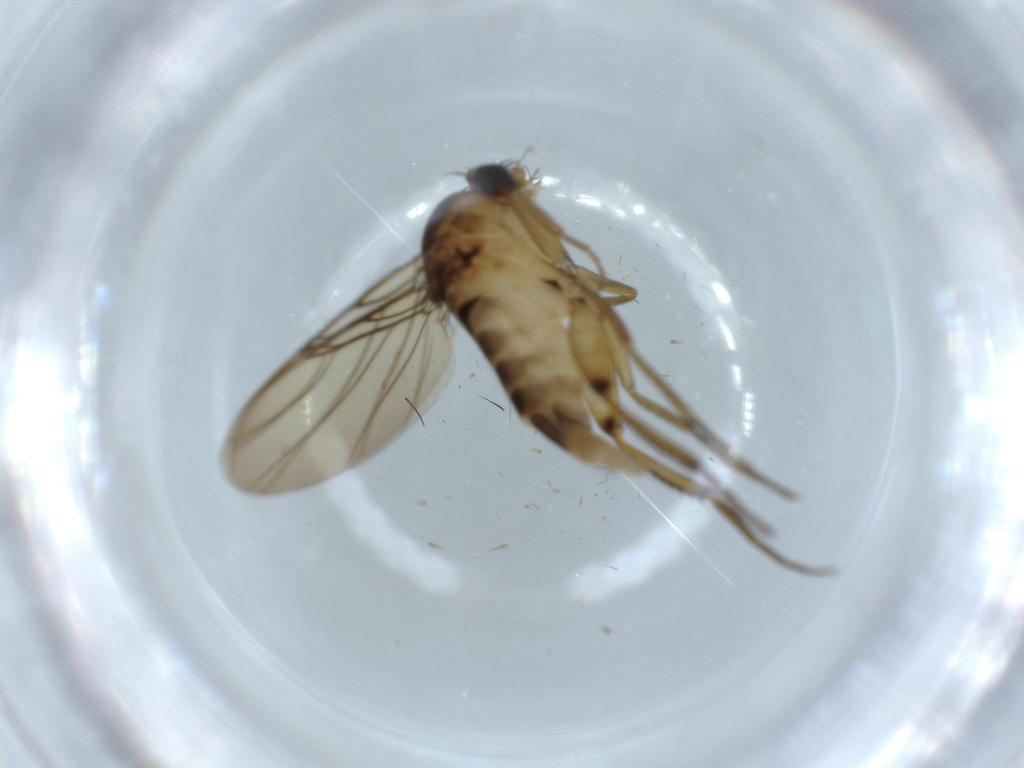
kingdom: Animalia
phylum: Arthropoda
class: Insecta
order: Diptera
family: Phoridae
